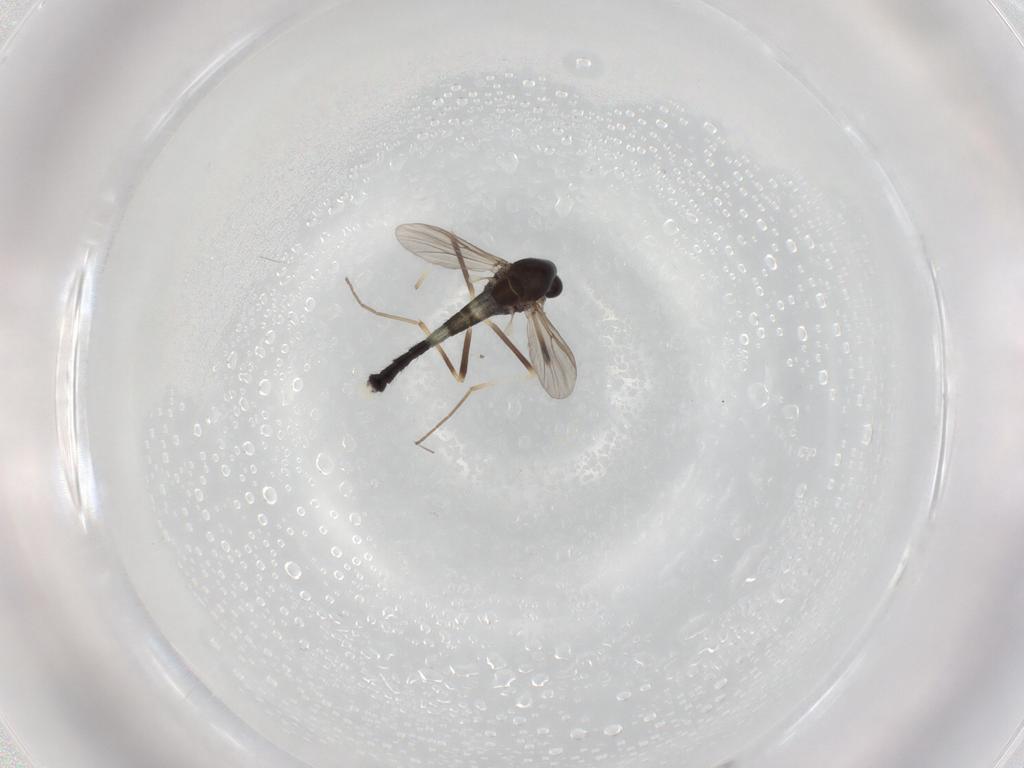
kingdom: Animalia
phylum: Arthropoda
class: Insecta
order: Diptera
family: Chironomidae
